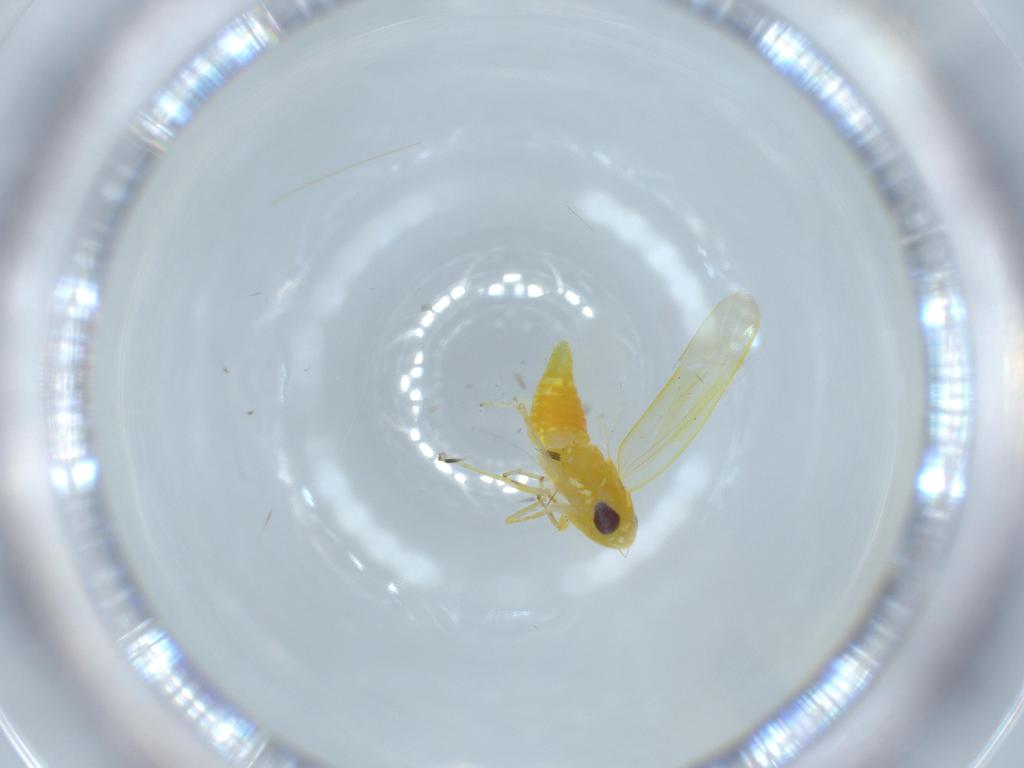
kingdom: Animalia
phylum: Arthropoda
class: Insecta
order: Hemiptera
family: Cicadellidae
